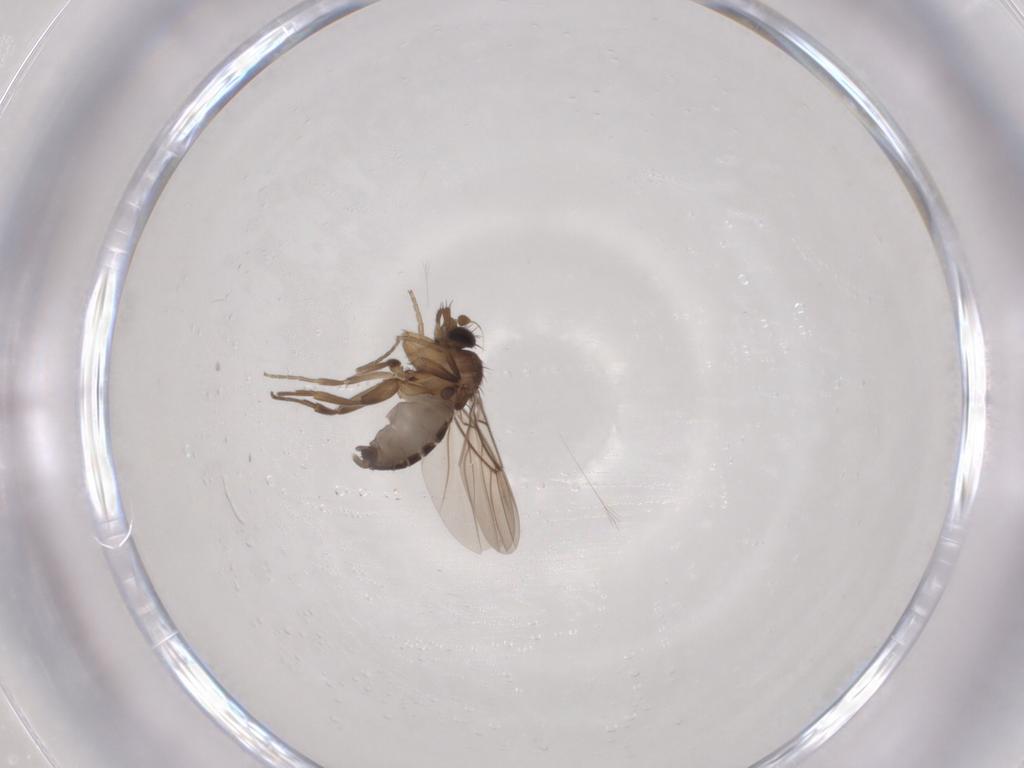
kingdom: Animalia
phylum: Arthropoda
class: Insecta
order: Diptera
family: Phoridae
